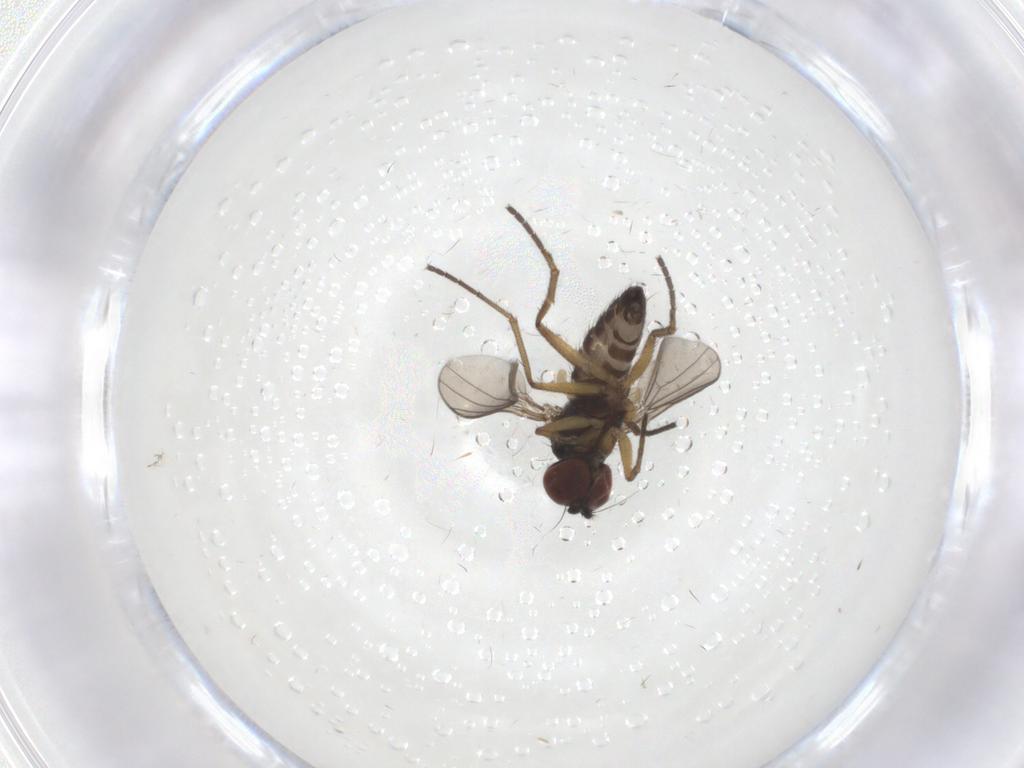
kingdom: Animalia
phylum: Arthropoda
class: Insecta
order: Diptera
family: Dolichopodidae
